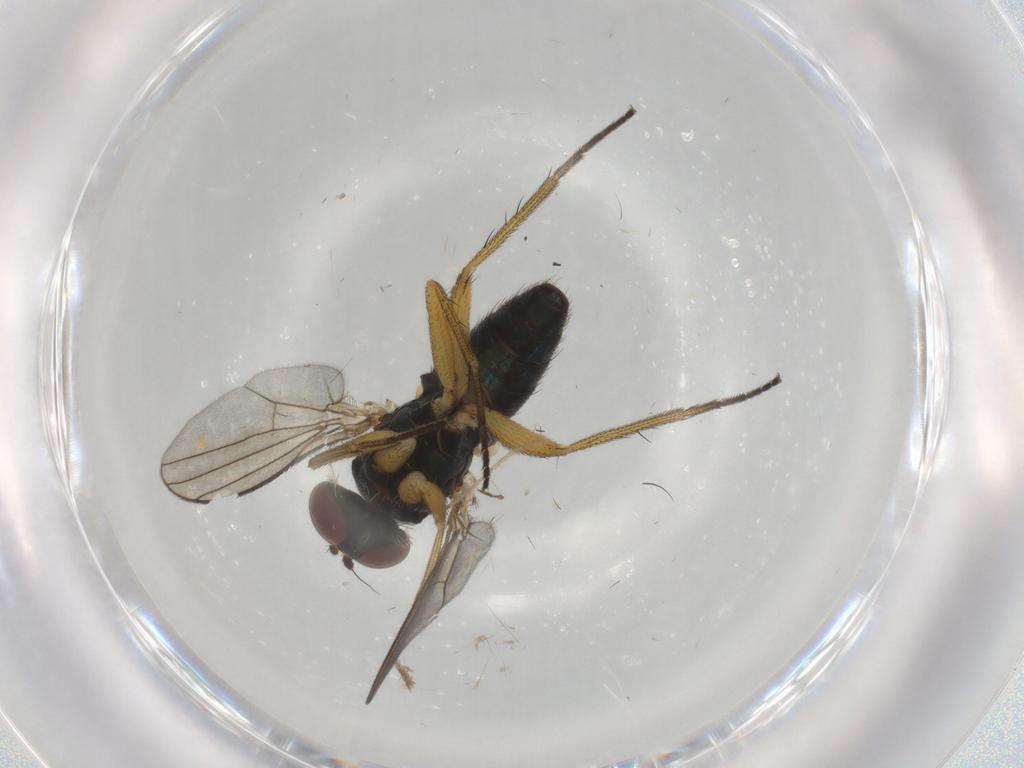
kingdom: Animalia
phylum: Arthropoda
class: Insecta
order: Diptera
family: Dolichopodidae
